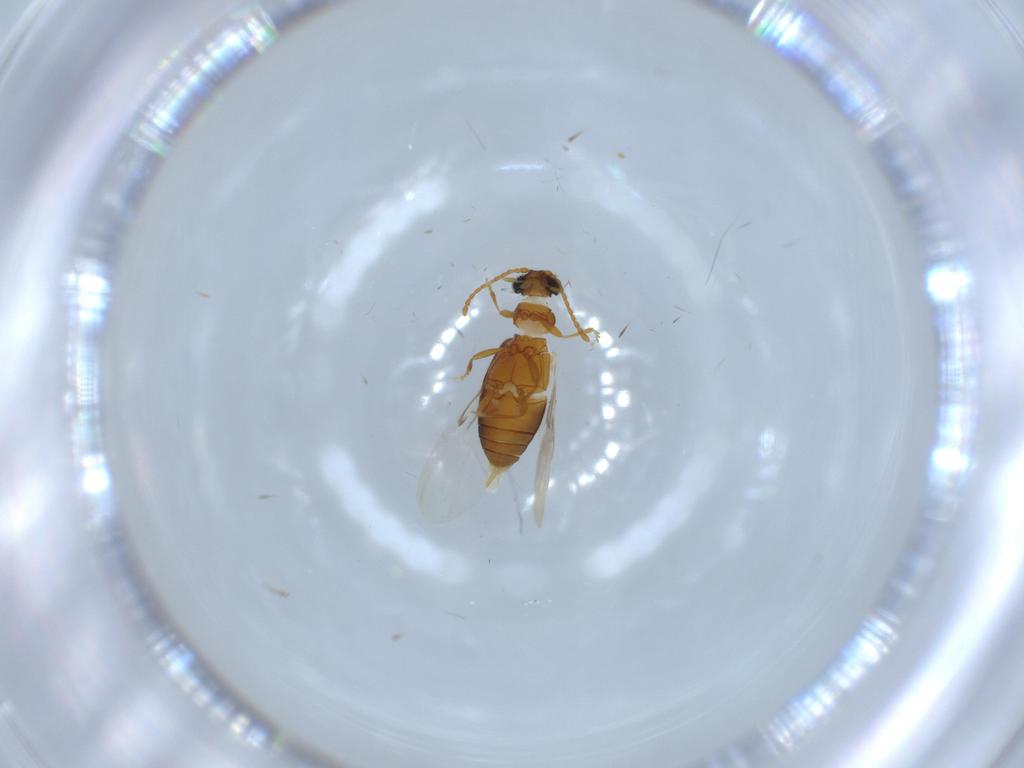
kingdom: Animalia
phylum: Arthropoda
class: Insecta
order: Coleoptera
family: Aderidae
